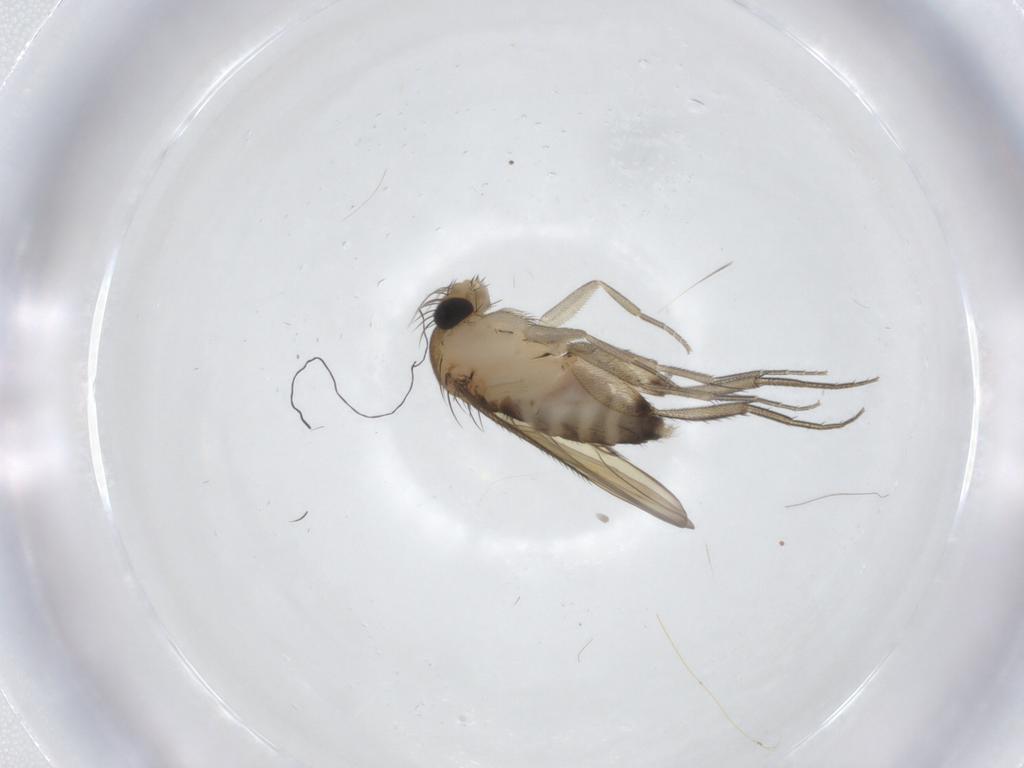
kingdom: Animalia
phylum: Arthropoda
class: Insecta
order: Diptera
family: Phoridae
